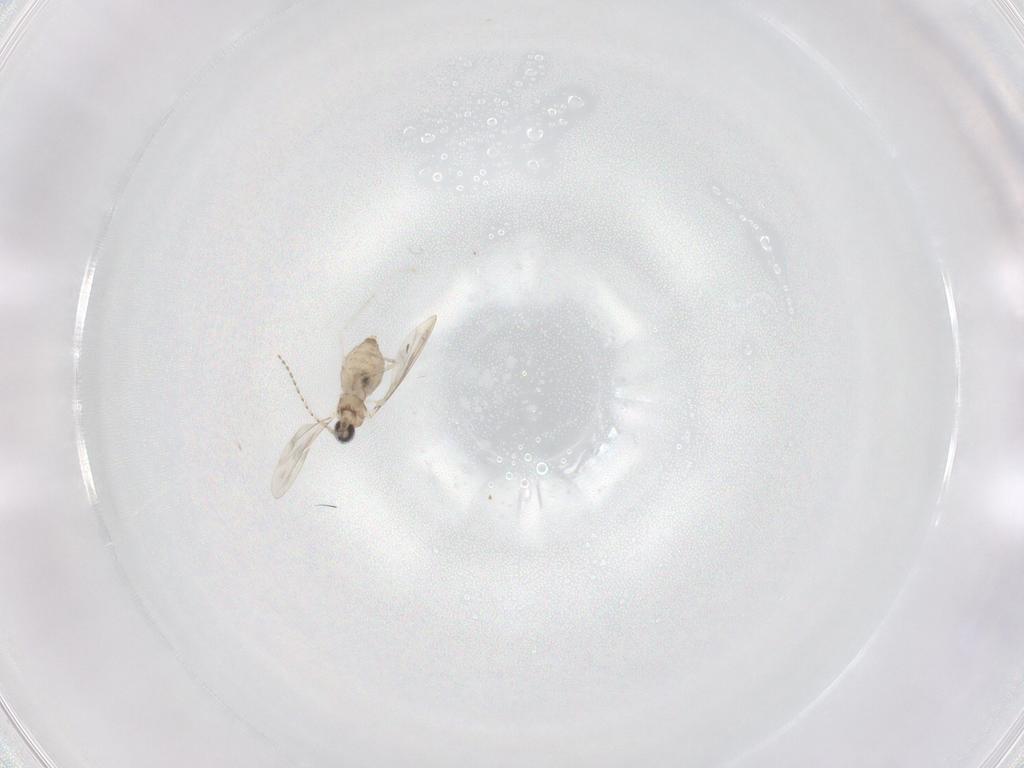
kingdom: Animalia
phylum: Arthropoda
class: Insecta
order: Diptera
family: Cecidomyiidae
